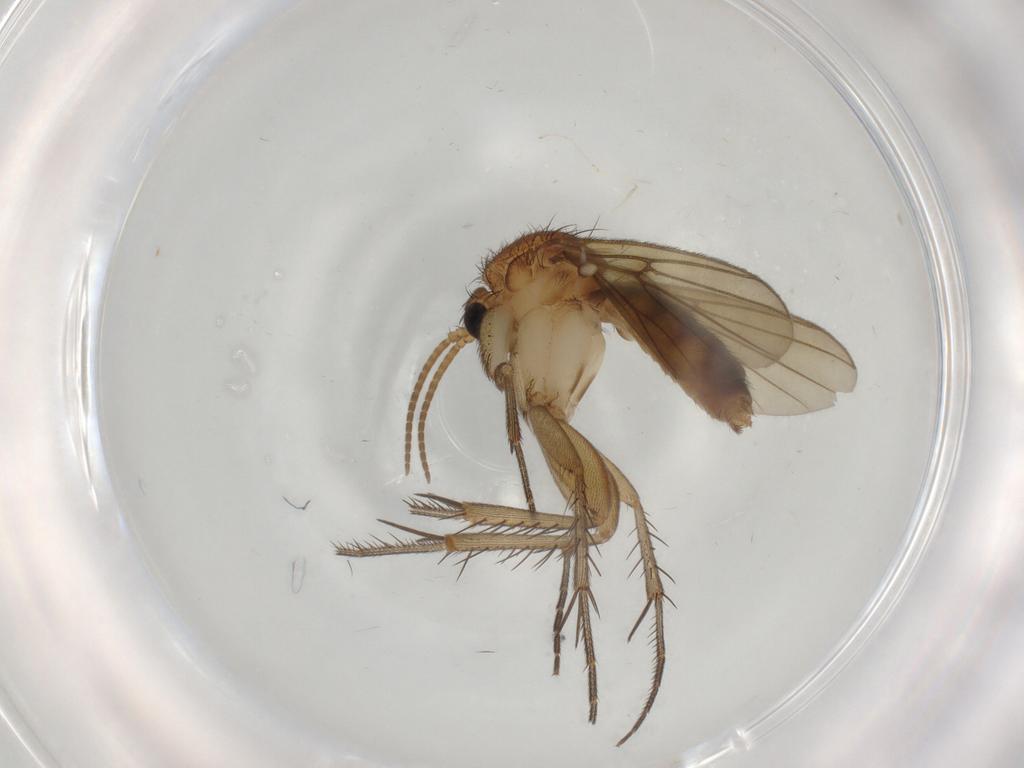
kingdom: Animalia
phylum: Arthropoda
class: Insecta
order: Diptera
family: Mycetophilidae
